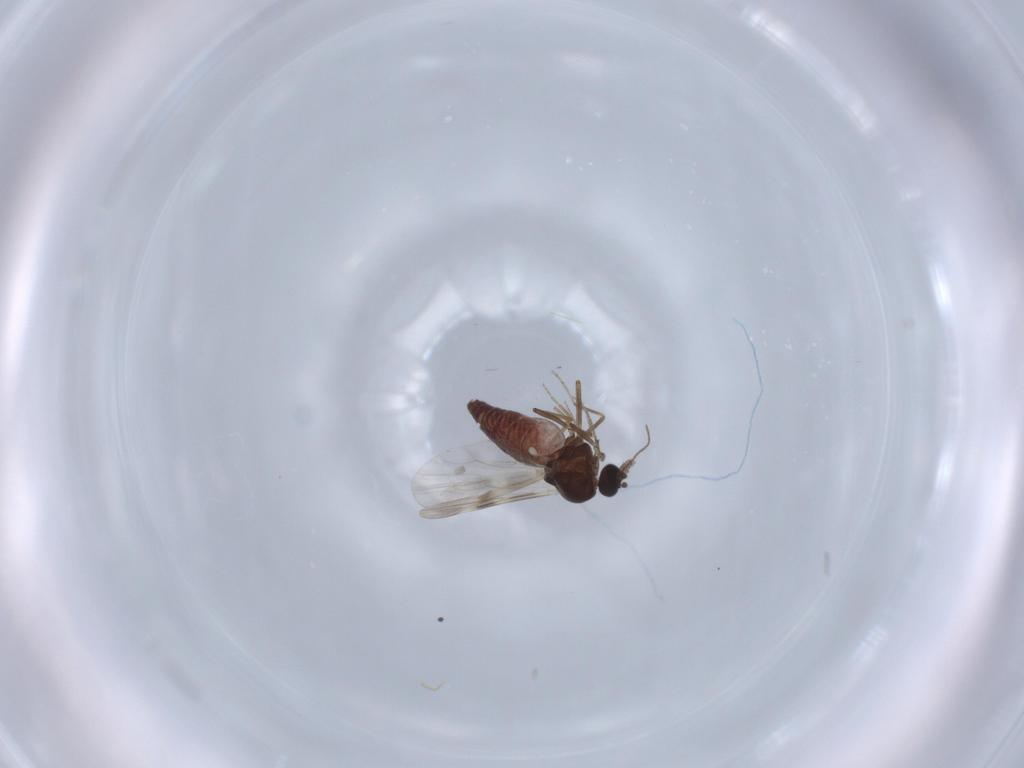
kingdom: Animalia
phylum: Arthropoda
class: Insecta
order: Diptera
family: Ceratopogonidae
